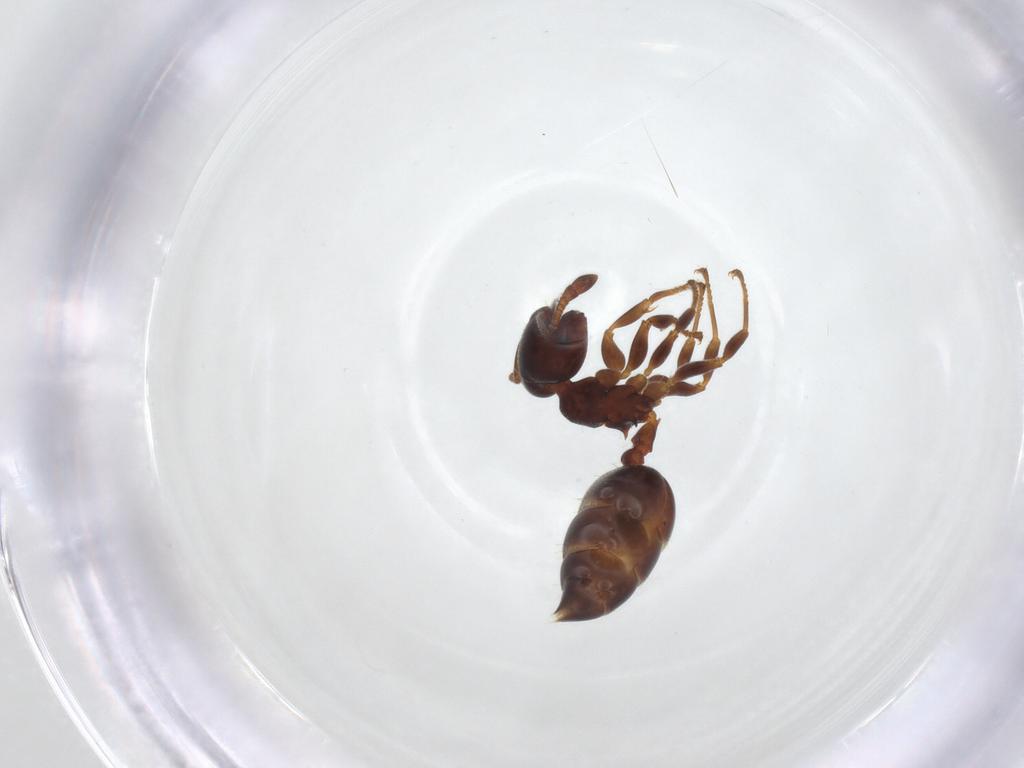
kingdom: Animalia
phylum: Arthropoda
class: Insecta
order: Hymenoptera
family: Formicidae
